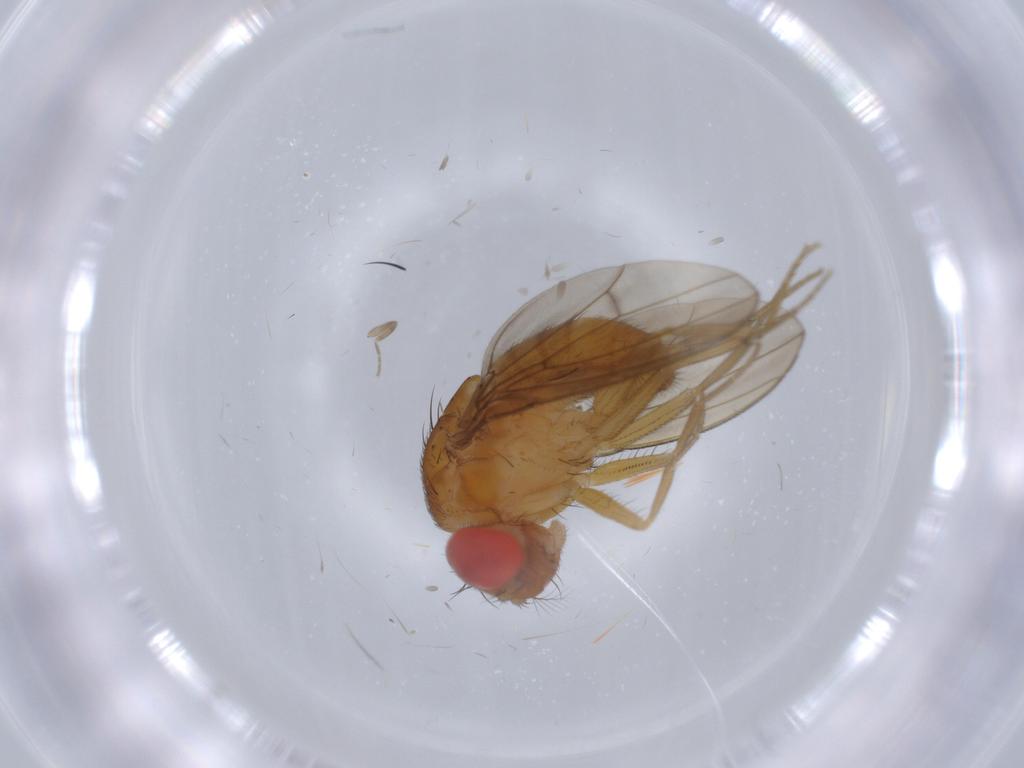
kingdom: Animalia
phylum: Arthropoda
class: Insecta
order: Diptera
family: Drosophilidae
